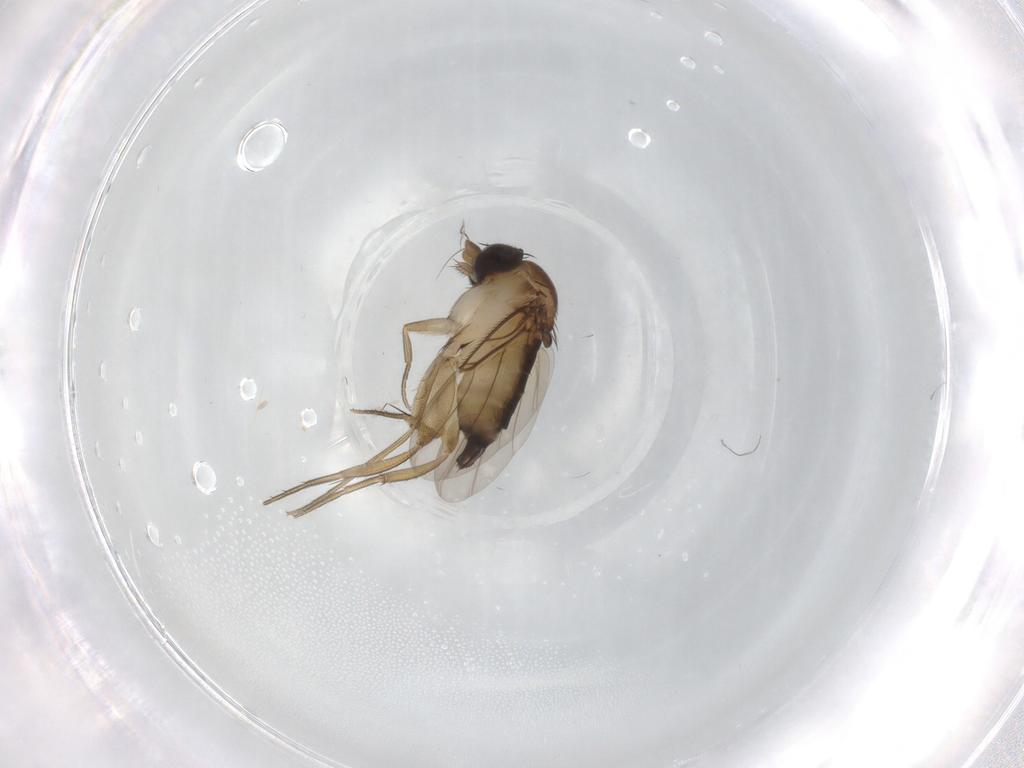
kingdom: Animalia
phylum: Arthropoda
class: Insecta
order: Diptera
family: Phoridae
